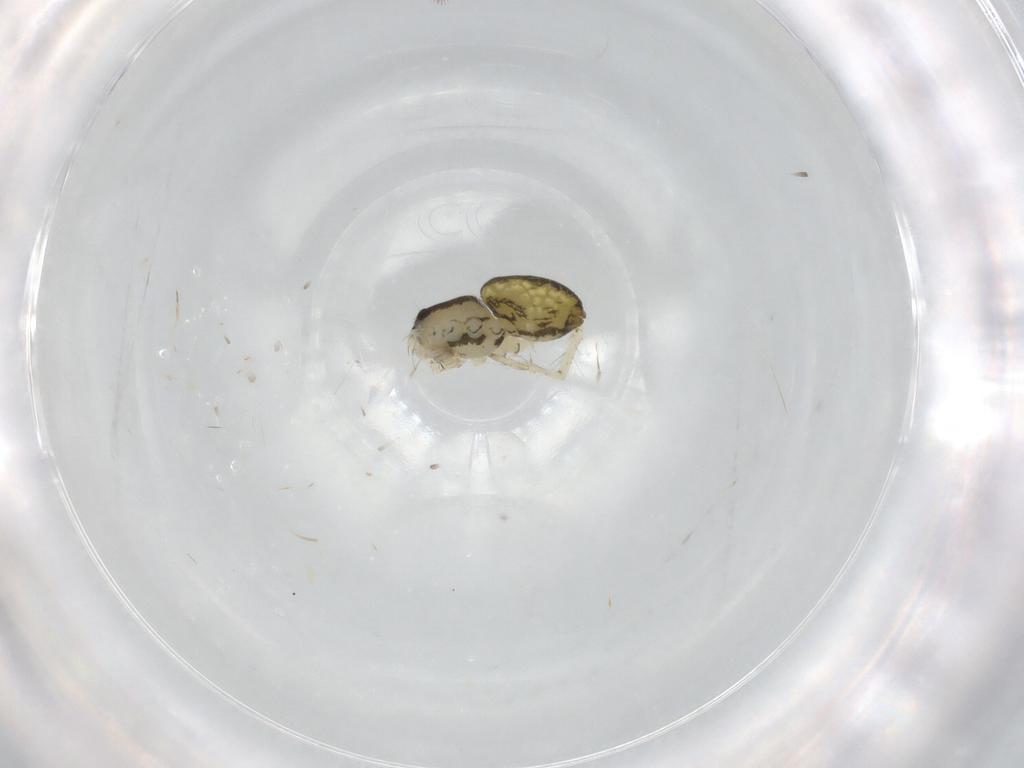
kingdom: Animalia
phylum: Arthropoda
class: Arachnida
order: Araneae
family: Pisauridae
